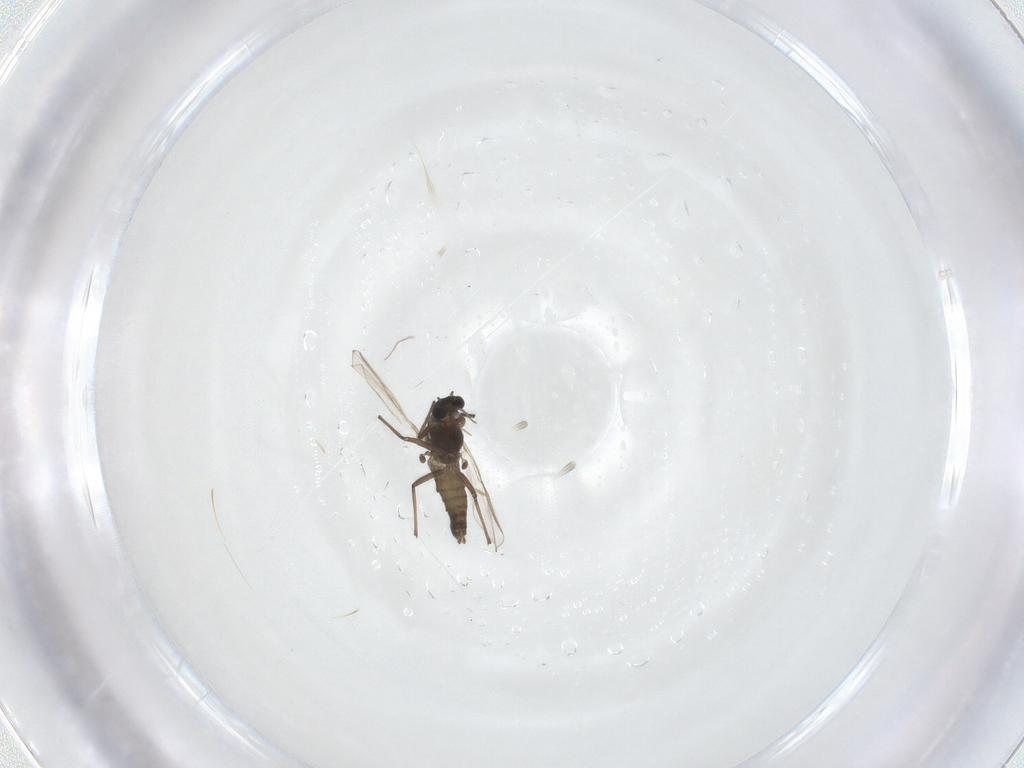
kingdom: Animalia
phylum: Arthropoda
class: Insecta
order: Diptera
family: Chironomidae
